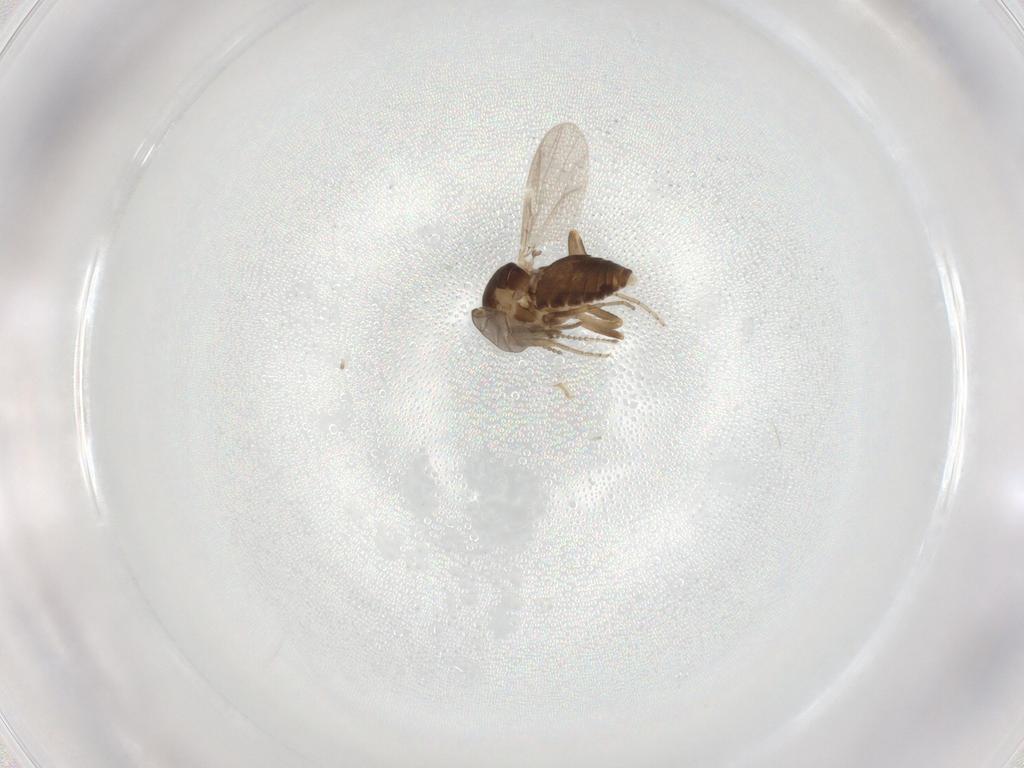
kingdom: Animalia
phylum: Arthropoda
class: Insecta
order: Diptera
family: Ceratopogonidae
